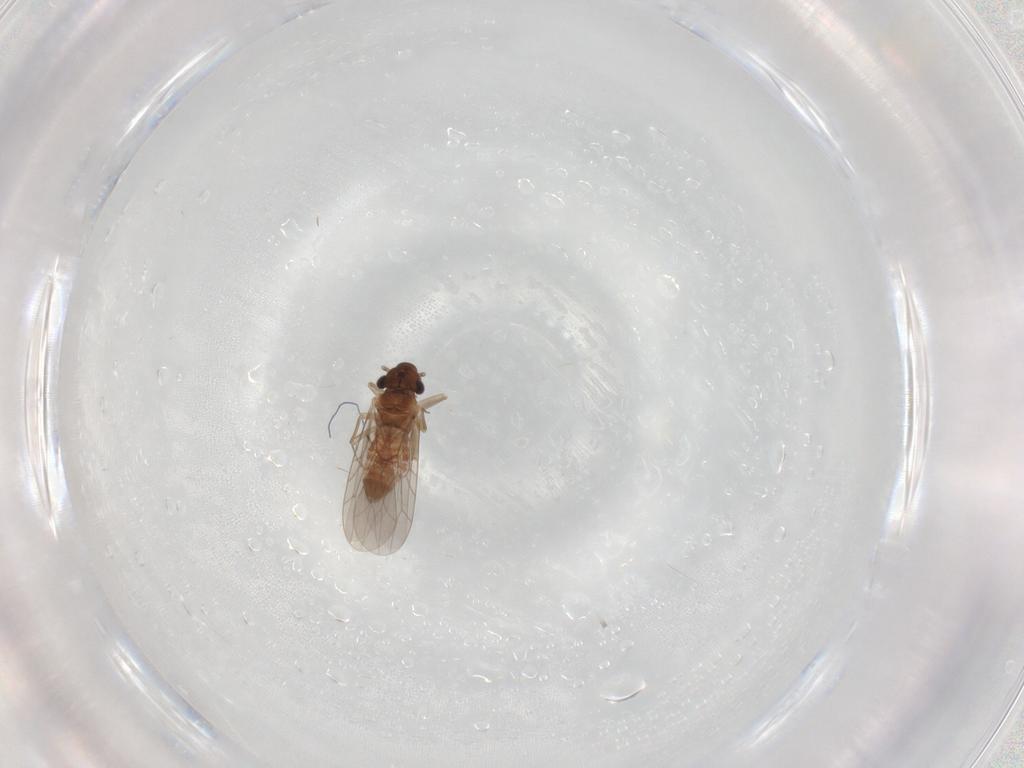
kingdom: Animalia
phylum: Arthropoda
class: Insecta
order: Psocodea
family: Lepidopsocidae
